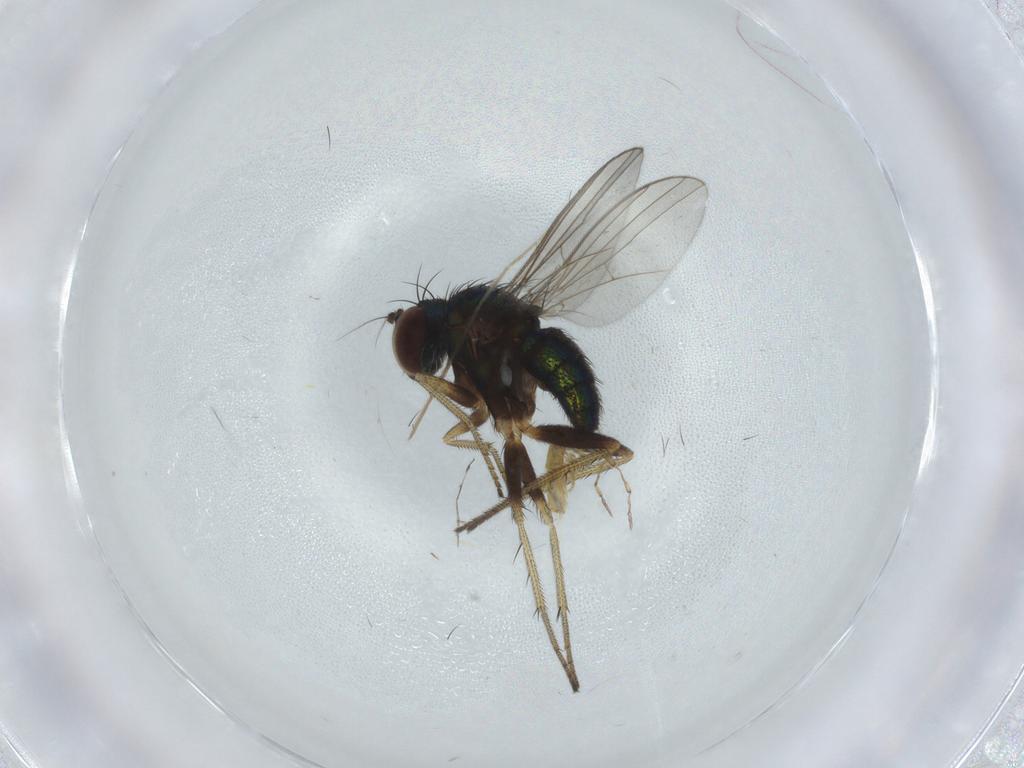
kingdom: Animalia
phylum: Arthropoda
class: Insecta
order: Diptera
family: Dolichopodidae
